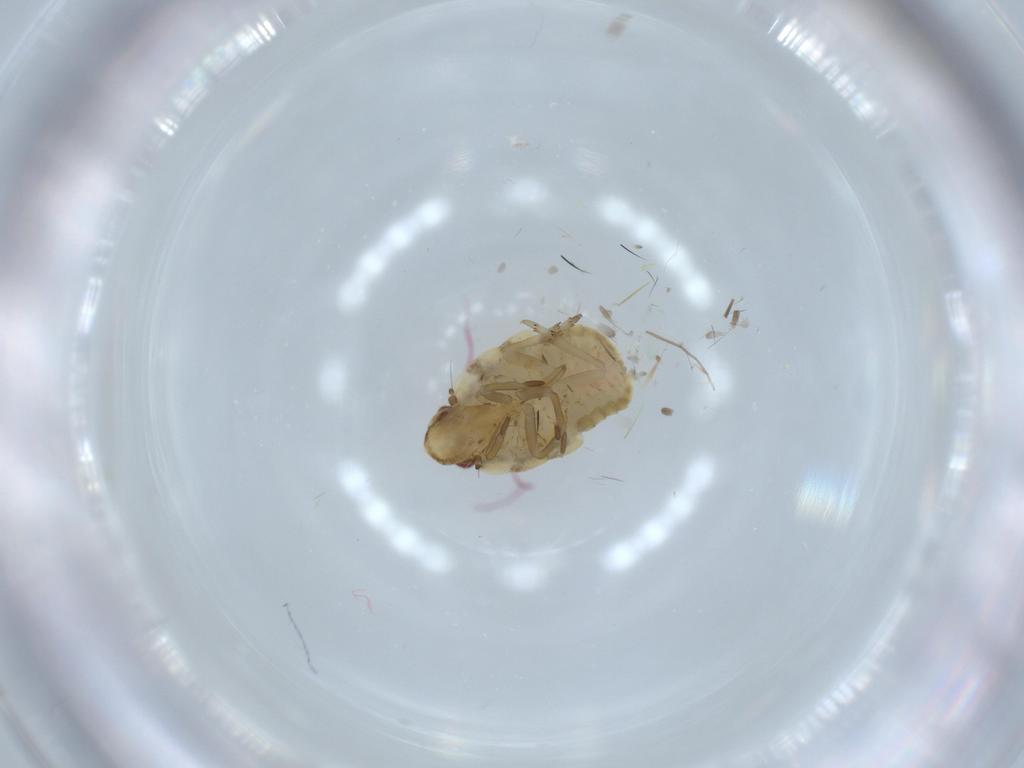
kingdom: Animalia
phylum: Arthropoda
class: Insecta
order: Hemiptera
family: Flatidae
